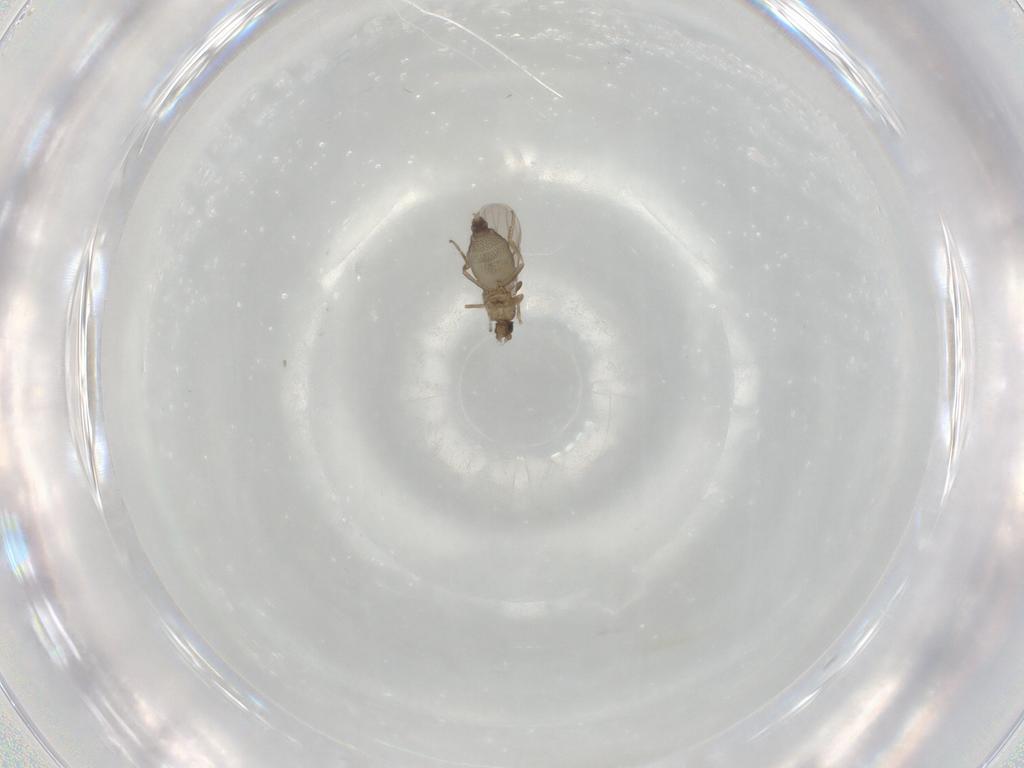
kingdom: Animalia
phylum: Arthropoda
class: Insecta
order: Diptera
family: Phoridae
